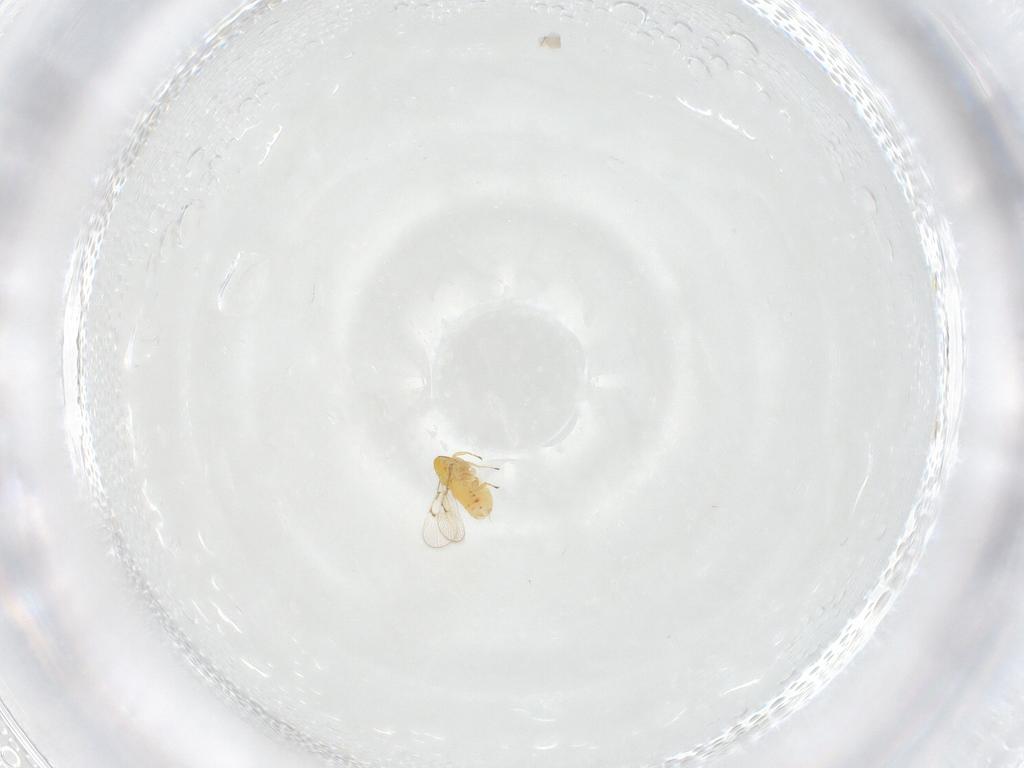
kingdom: Animalia
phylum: Arthropoda
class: Insecta
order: Hymenoptera
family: Trichogrammatidae
